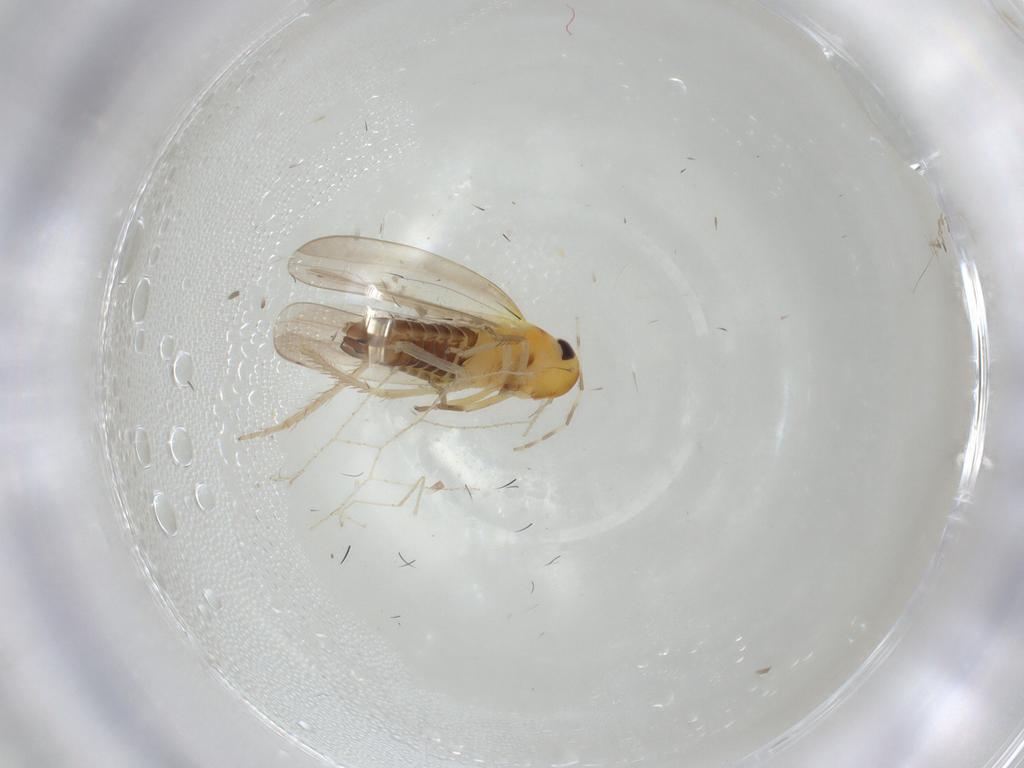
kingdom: Animalia
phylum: Arthropoda
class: Insecta
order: Hemiptera
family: Cicadellidae
